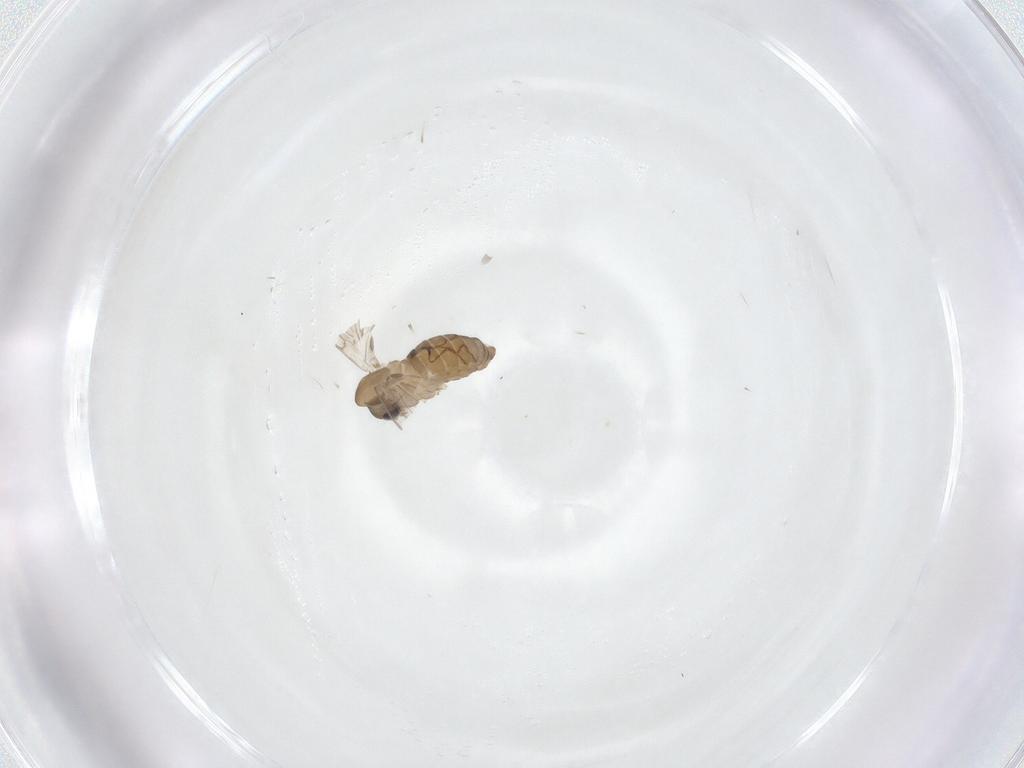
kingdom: Animalia
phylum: Arthropoda
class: Insecta
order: Diptera
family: Psychodidae
